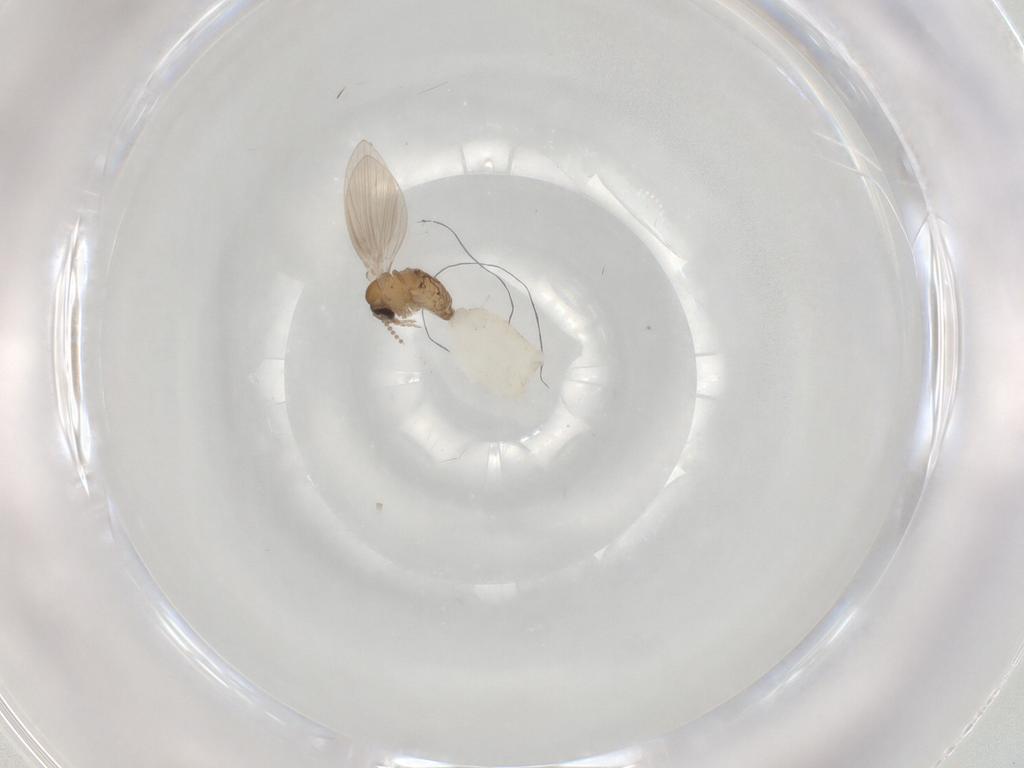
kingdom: Animalia
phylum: Arthropoda
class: Insecta
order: Diptera
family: Psychodidae
